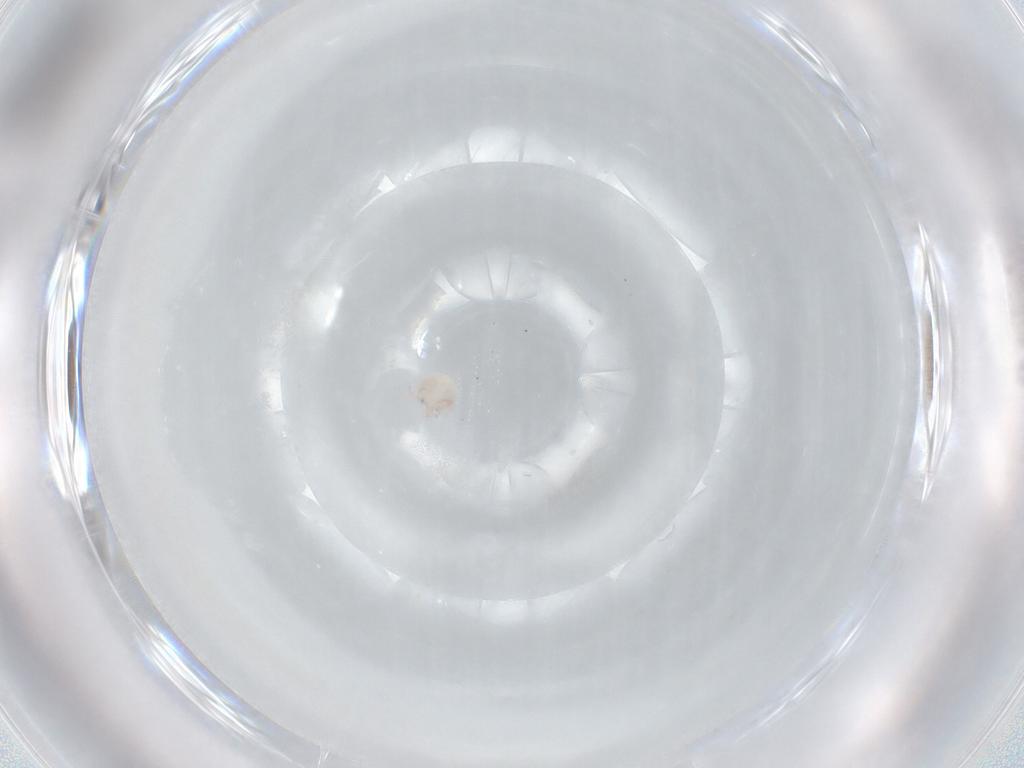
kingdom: Animalia
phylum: Arthropoda
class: Arachnida
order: Trombidiformes
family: Arrenuridae
